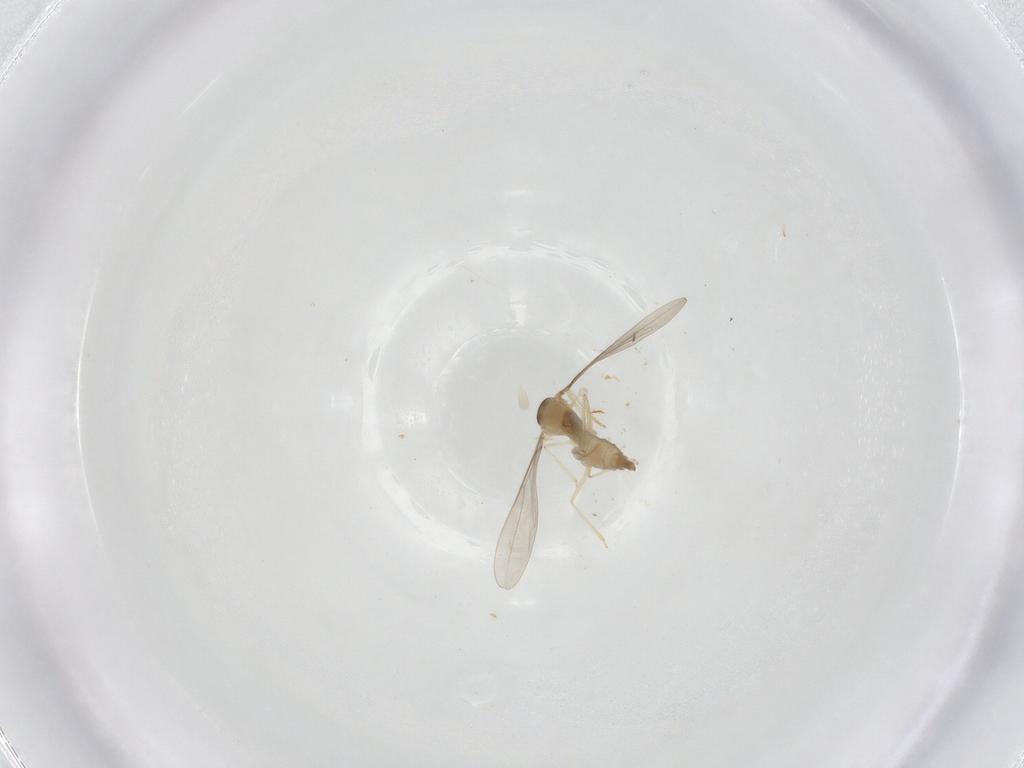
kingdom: Animalia
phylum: Arthropoda
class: Insecta
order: Diptera
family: Cecidomyiidae
